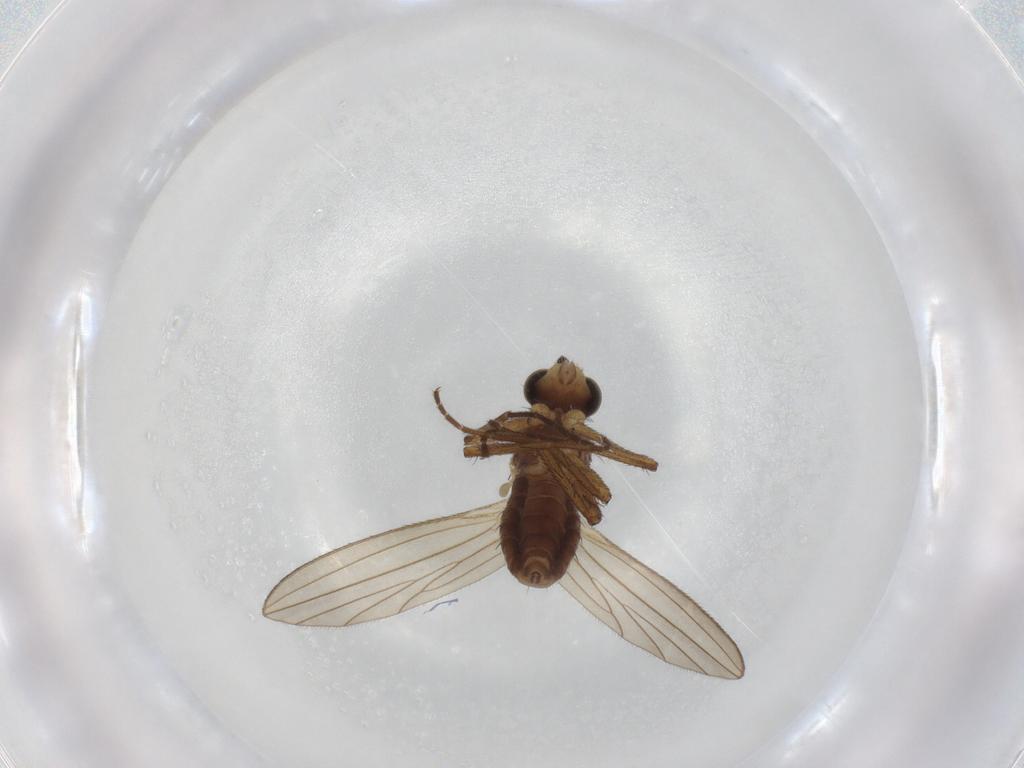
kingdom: Animalia
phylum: Arthropoda
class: Insecta
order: Diptera
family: Lonchopteridae
